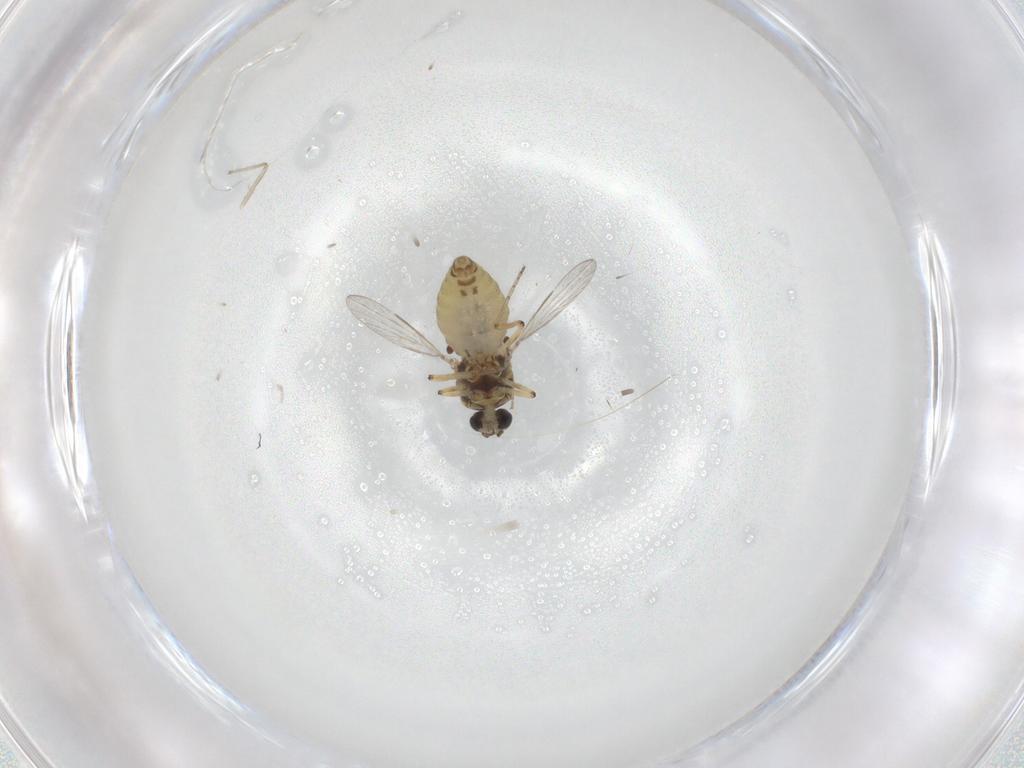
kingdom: Animalia
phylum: Arthropoda
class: Insecta
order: Diptera
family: Ceratopogonidae
